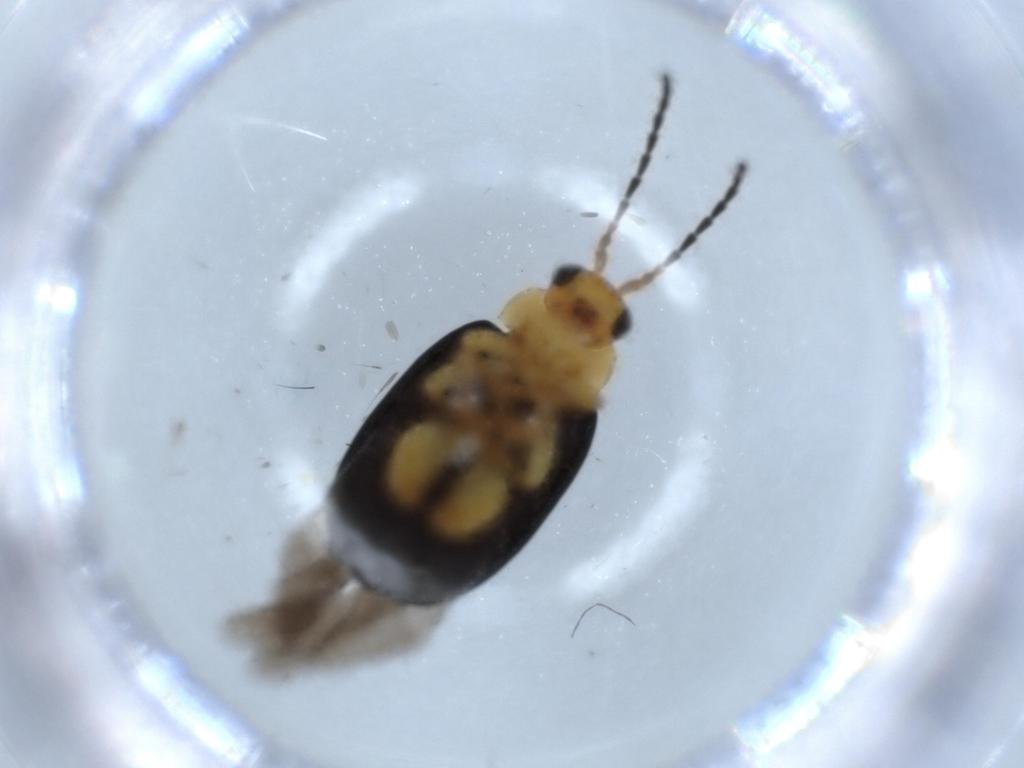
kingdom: Animalia
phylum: Arthropoda
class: Insecta
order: Coleoptera
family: Chrysomelidae
